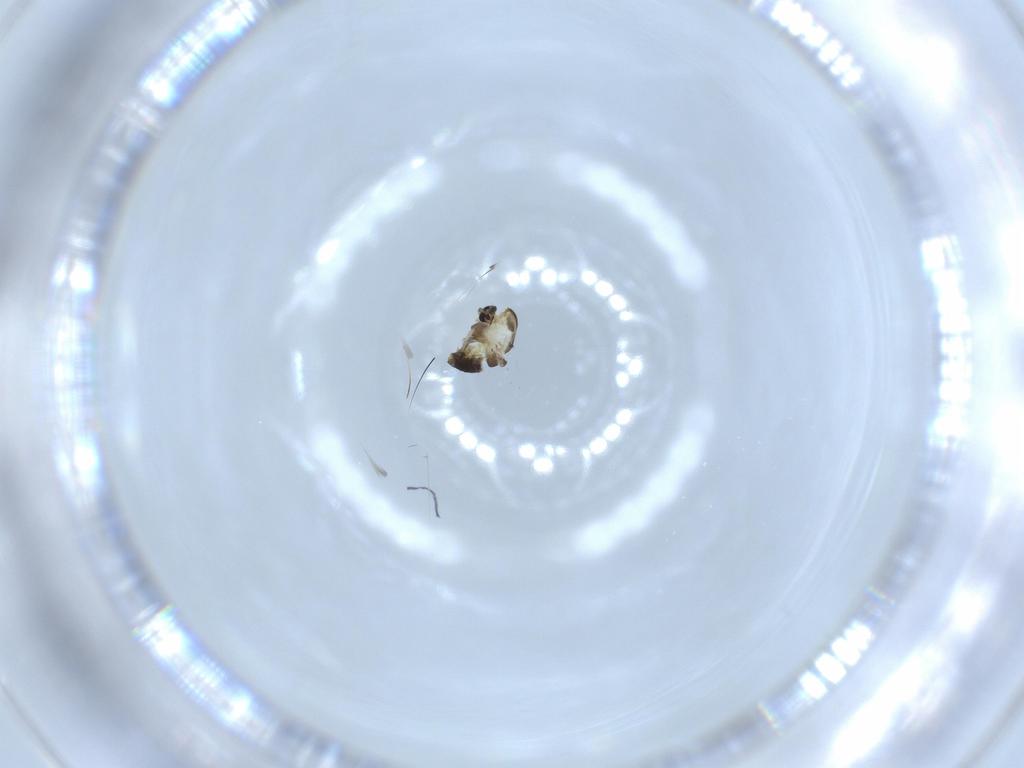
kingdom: Animalia
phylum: Arthropoda
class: Insecta
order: Diptera
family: Chironomidae
